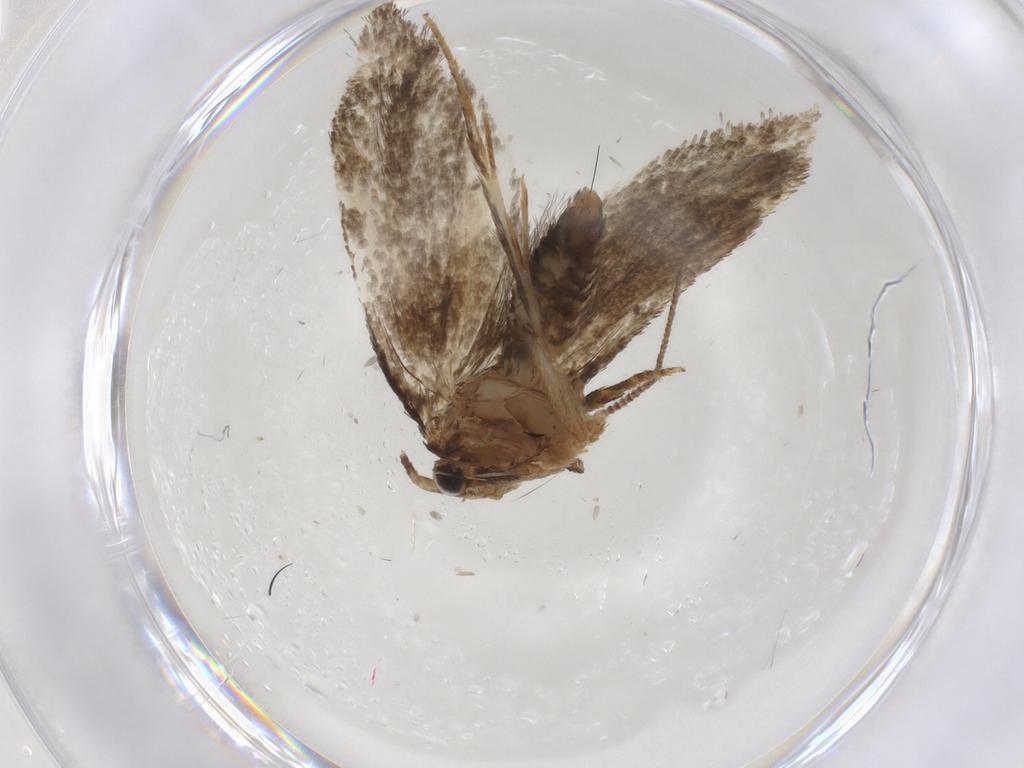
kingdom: Animalia
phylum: Arthropoda
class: Insecta
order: Lepidoptera
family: Crambidae
